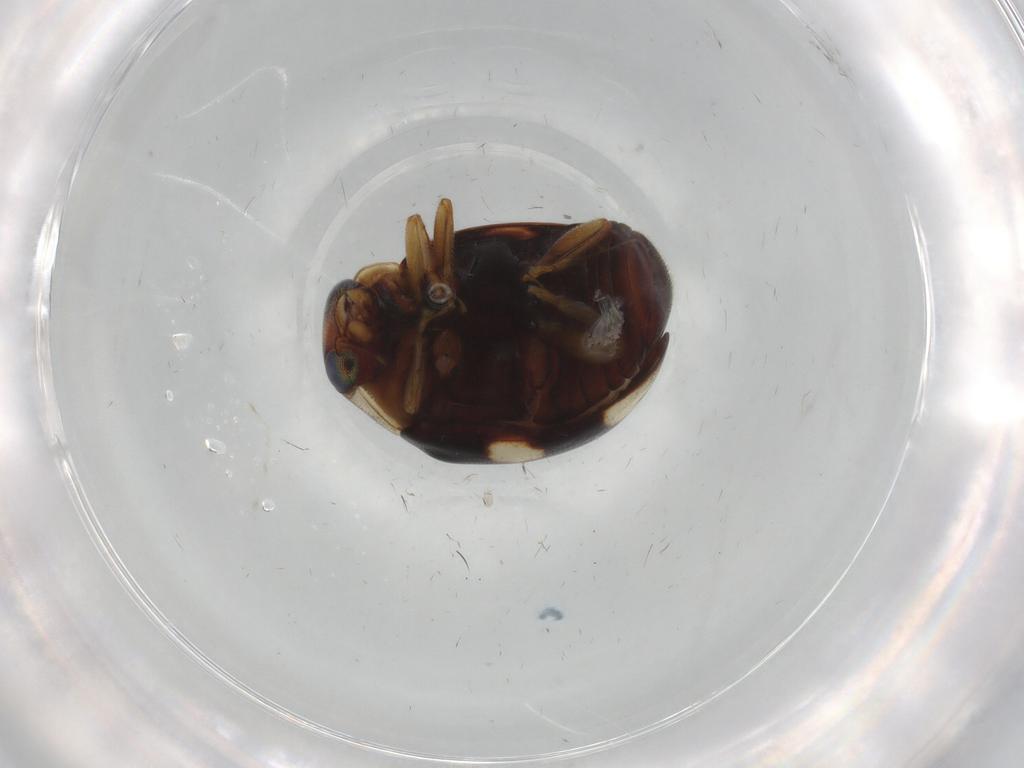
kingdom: Animalia
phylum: Arthropoda
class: Insecta
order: Coleoptera
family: Coccinellidae
